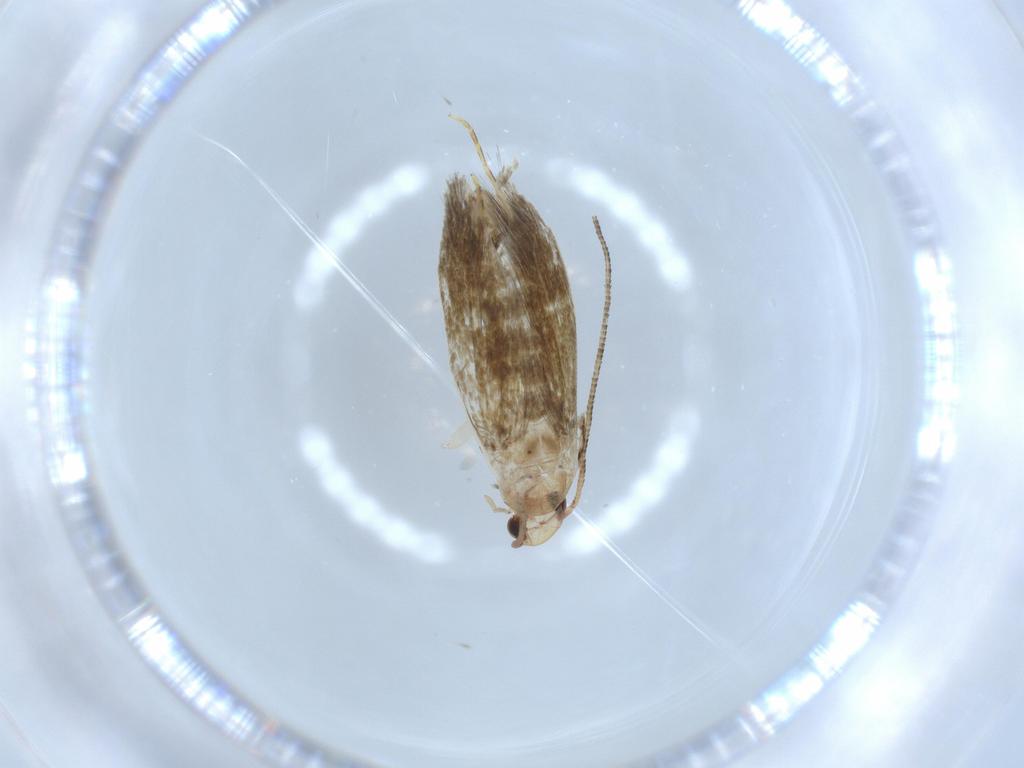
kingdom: Animalia
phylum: Arthropoda
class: Insecta
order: Lepidoptera
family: Tineidae
